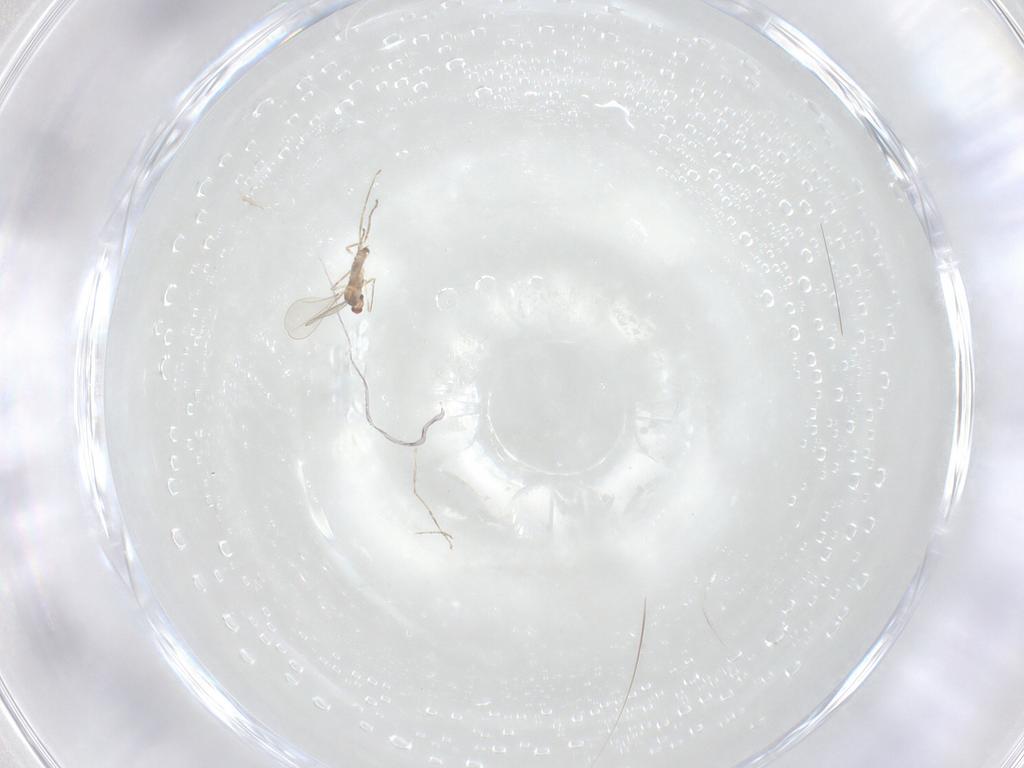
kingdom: Animalia
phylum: Arthropoda
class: Insecta
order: Diptera
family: Cecidomyiidae
